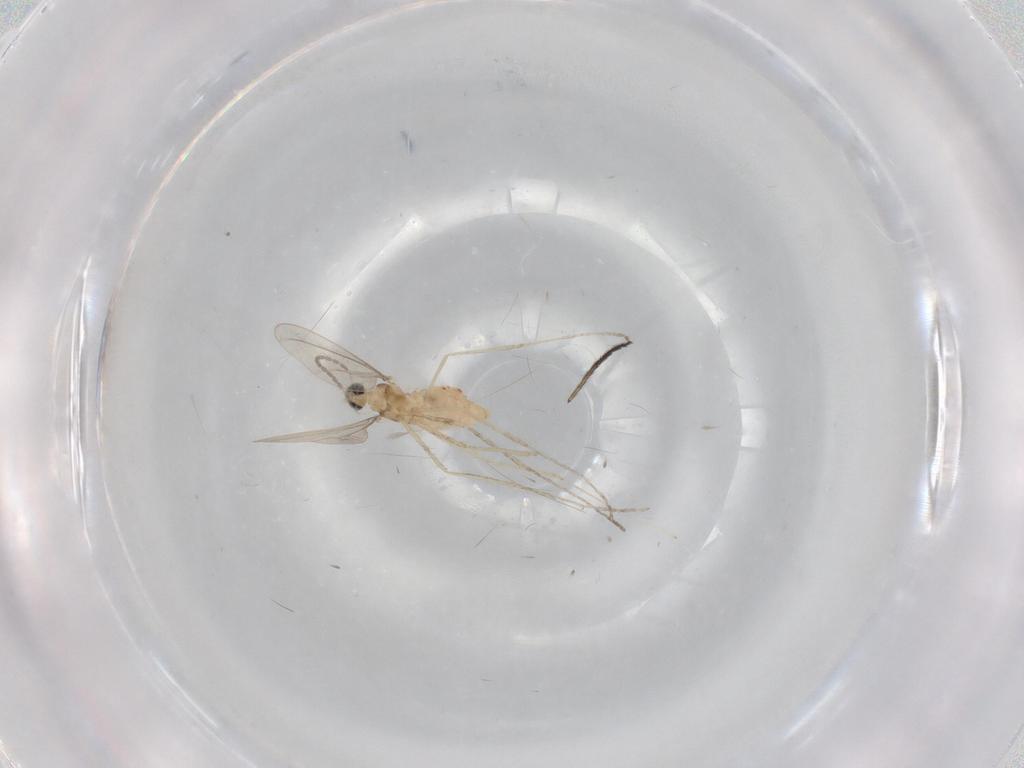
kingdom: Animalia
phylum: Arthropoda
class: Insecta
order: Diptera
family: Cecidomyiidae
